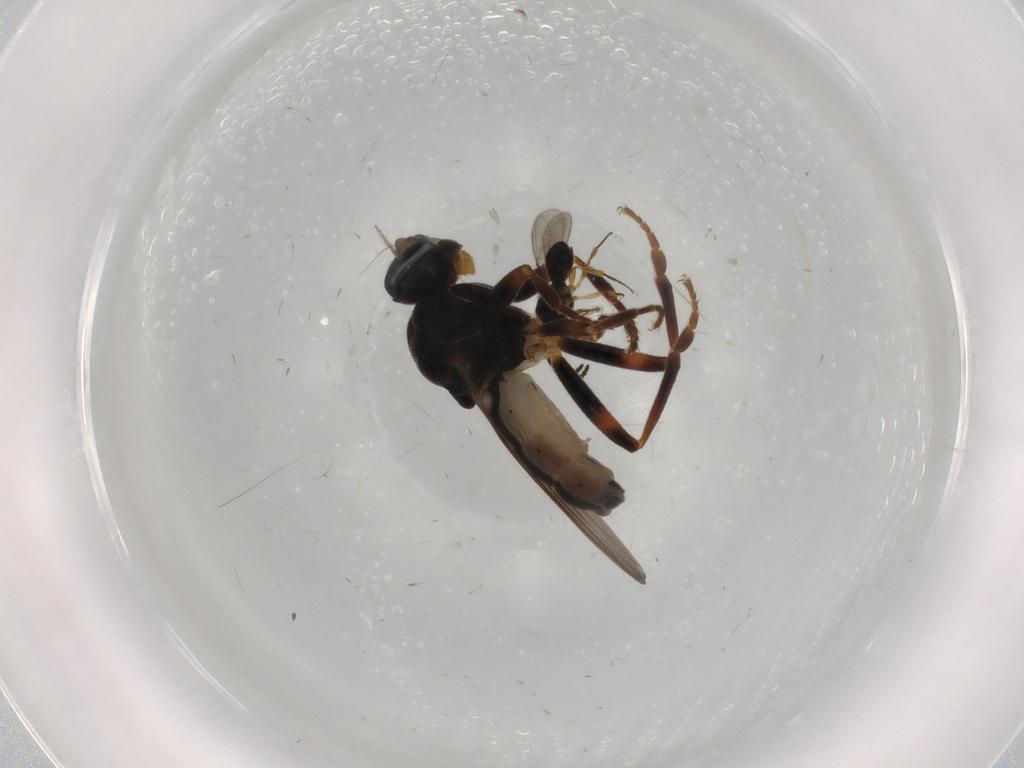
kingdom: Animalia
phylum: Arthropoda
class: Insecta
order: Diptera
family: Sphaeroceridae
